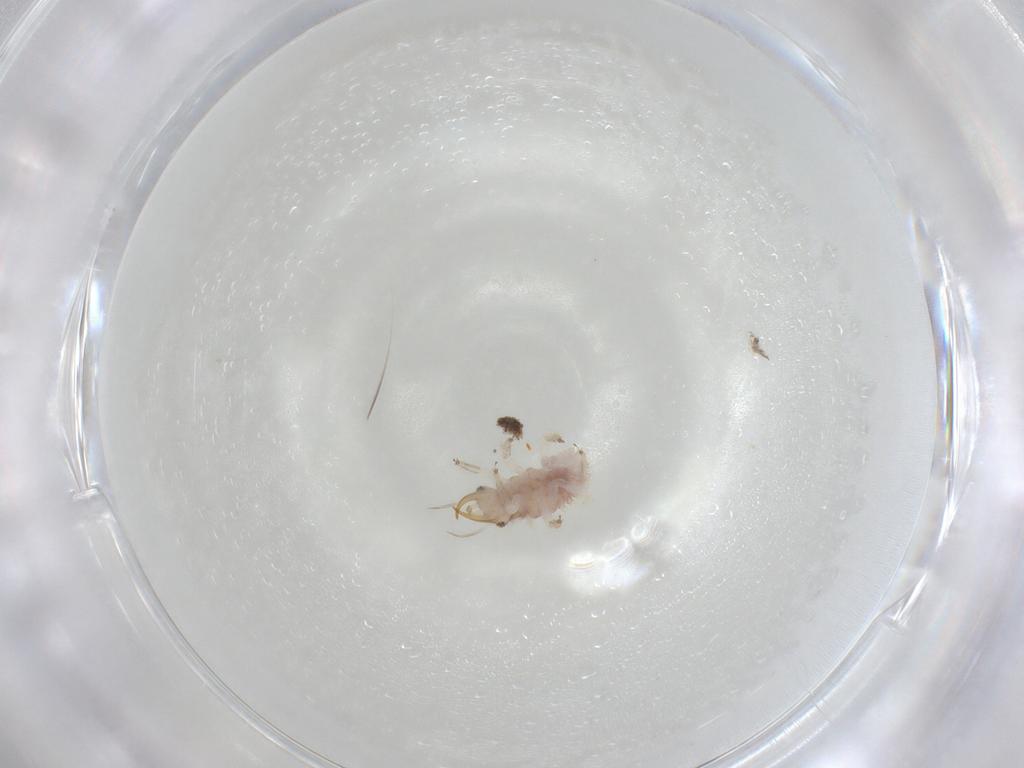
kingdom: Animalia
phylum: Arthropoda
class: Insecta
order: Neuroptera
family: Chrysopidae
